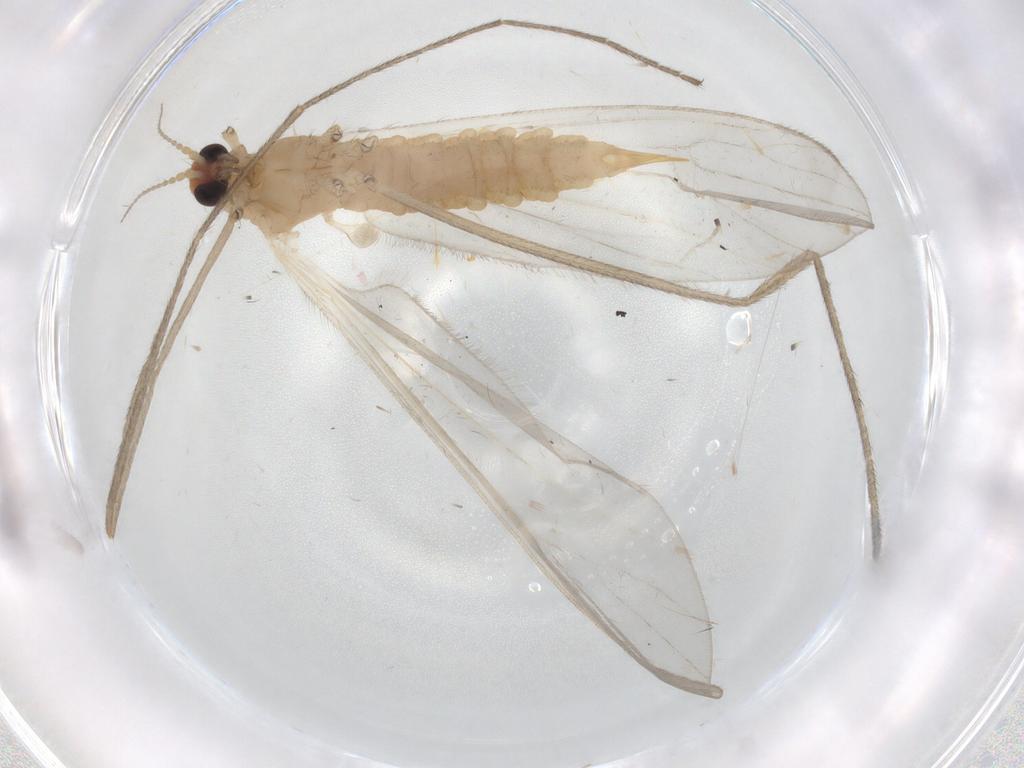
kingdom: Animalia
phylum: Arthropoda
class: Insecta
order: Diptera
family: Limoniidae
